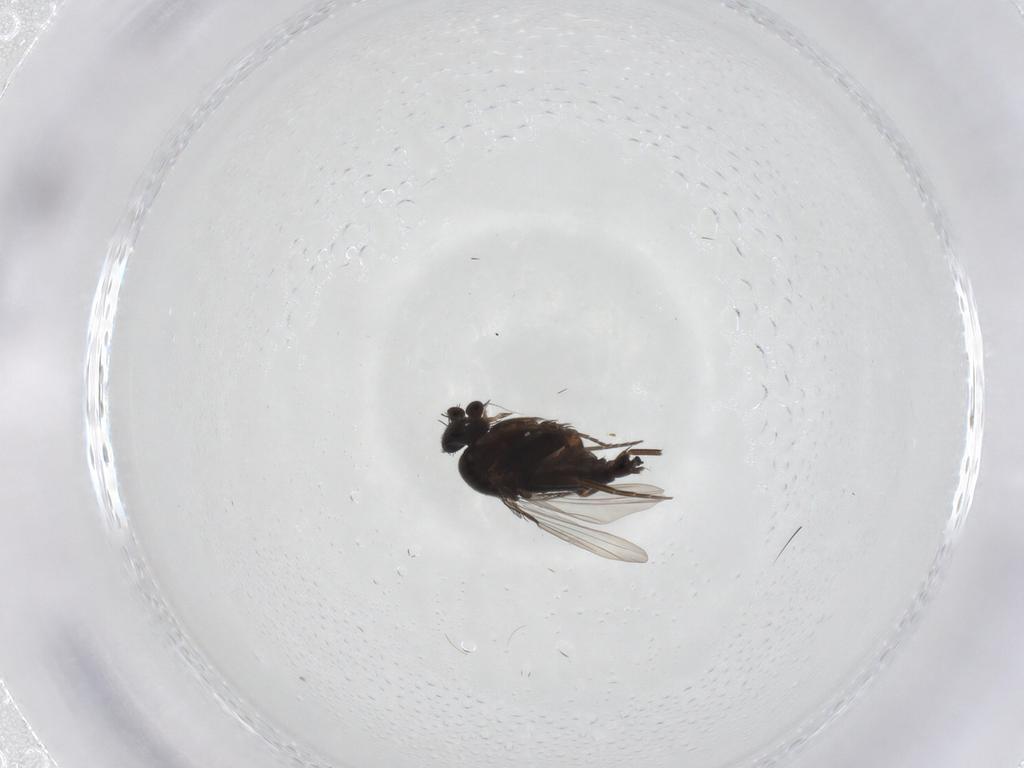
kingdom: Animalia
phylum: Arthropoda
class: Insecta
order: Diptera
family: Muscidae
